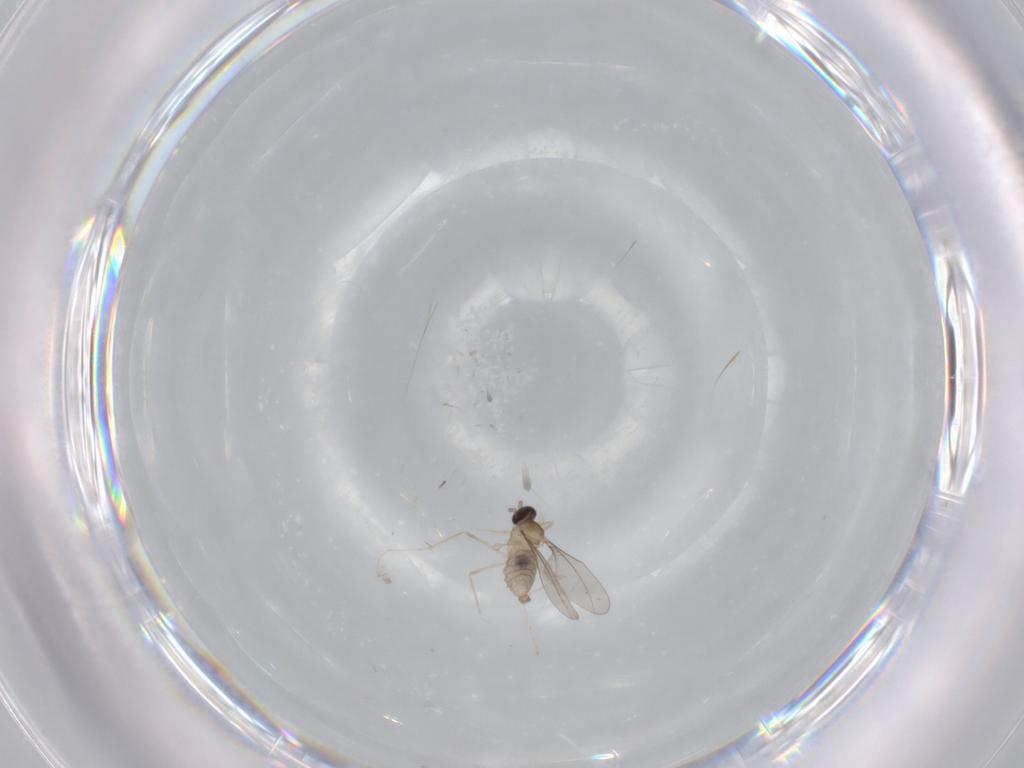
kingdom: Animalia
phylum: Arthropoda
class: Insecta
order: Diptera
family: Cecidomyiidae
